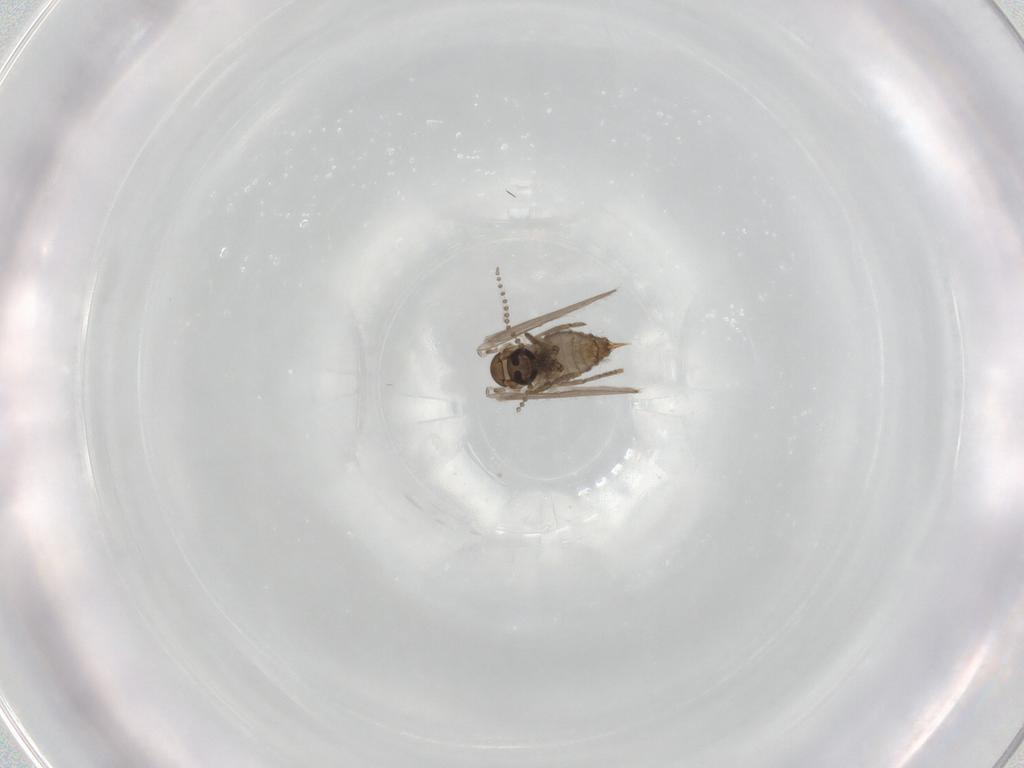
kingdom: Animalia
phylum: Arthropoda
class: Insecta
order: Diptera
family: Psychodidae
